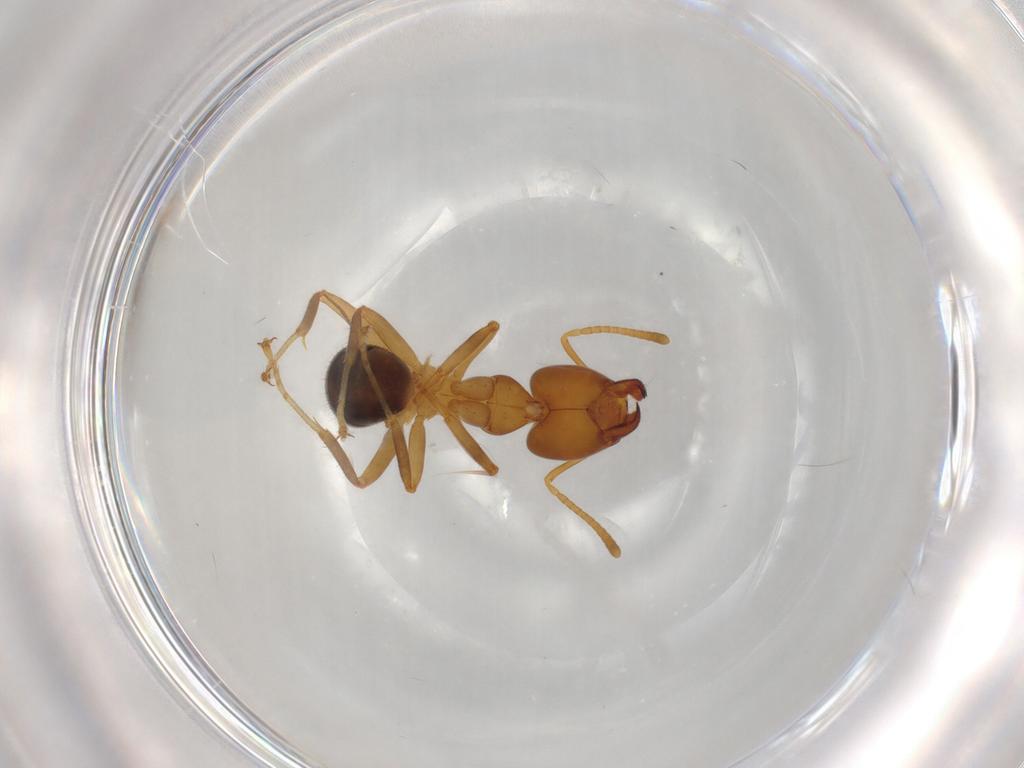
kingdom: Animalia
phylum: Arthropoda
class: Insecta
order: Hymenoptera
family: Formicidae
